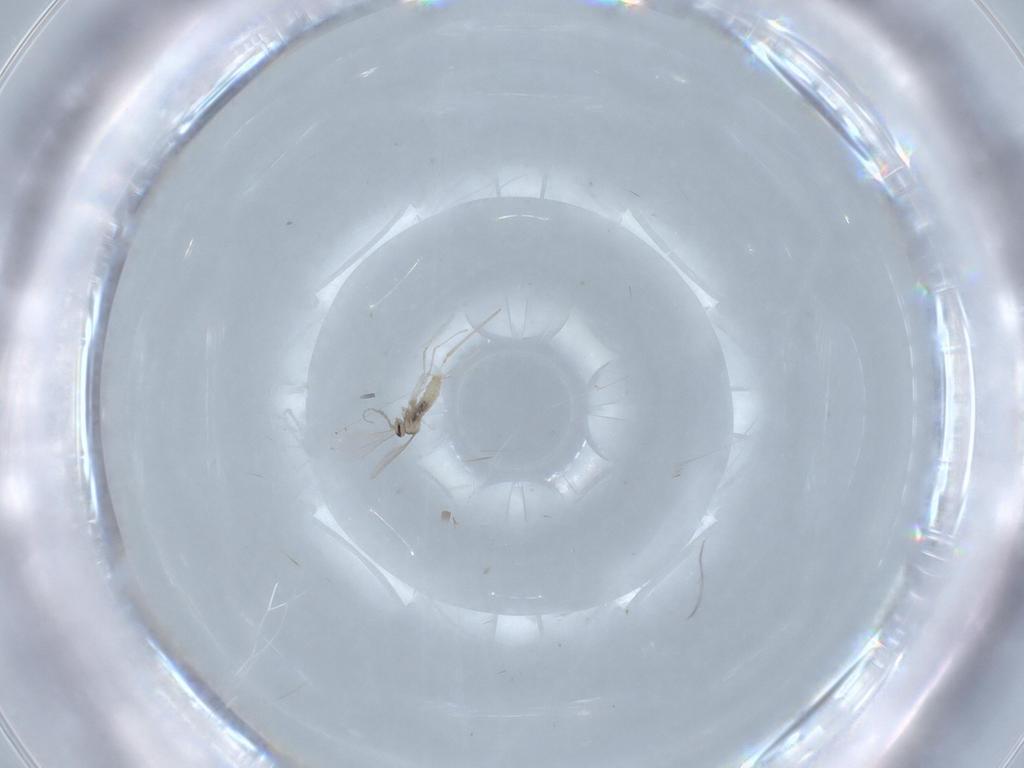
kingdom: Animalia
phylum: Arthropoda
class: Insecta
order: Diptera
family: Cecidomyiidae
